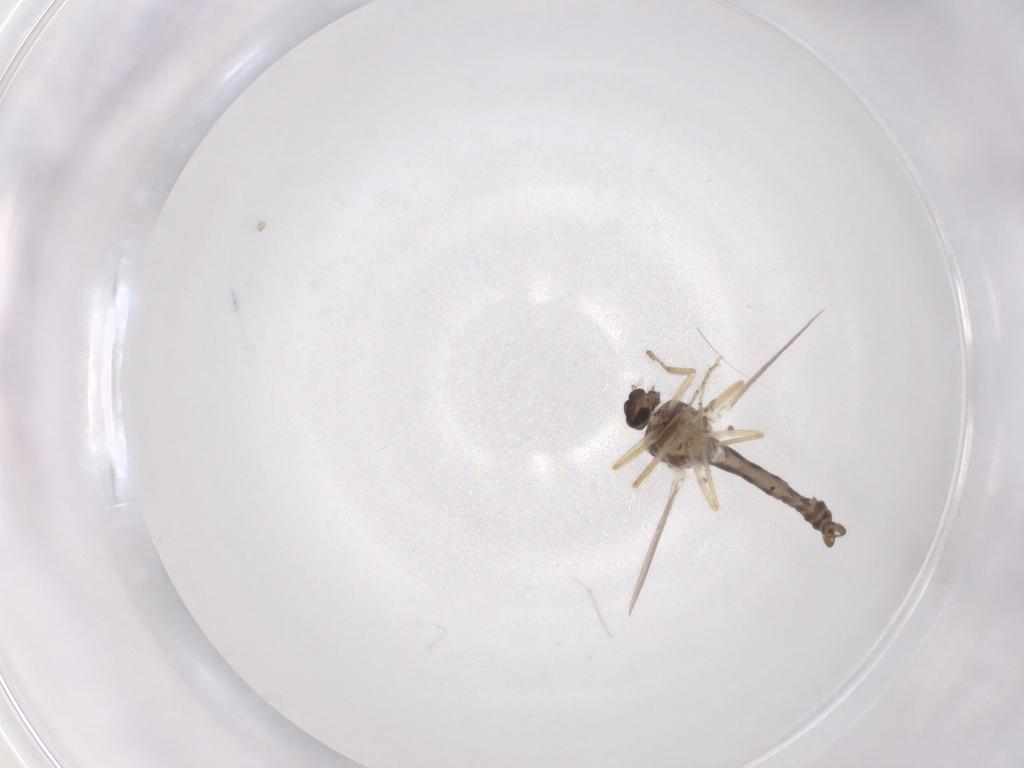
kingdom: Animalia
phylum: Arthropoda
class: Insecta
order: Diptera
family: Ceratopogonidae
